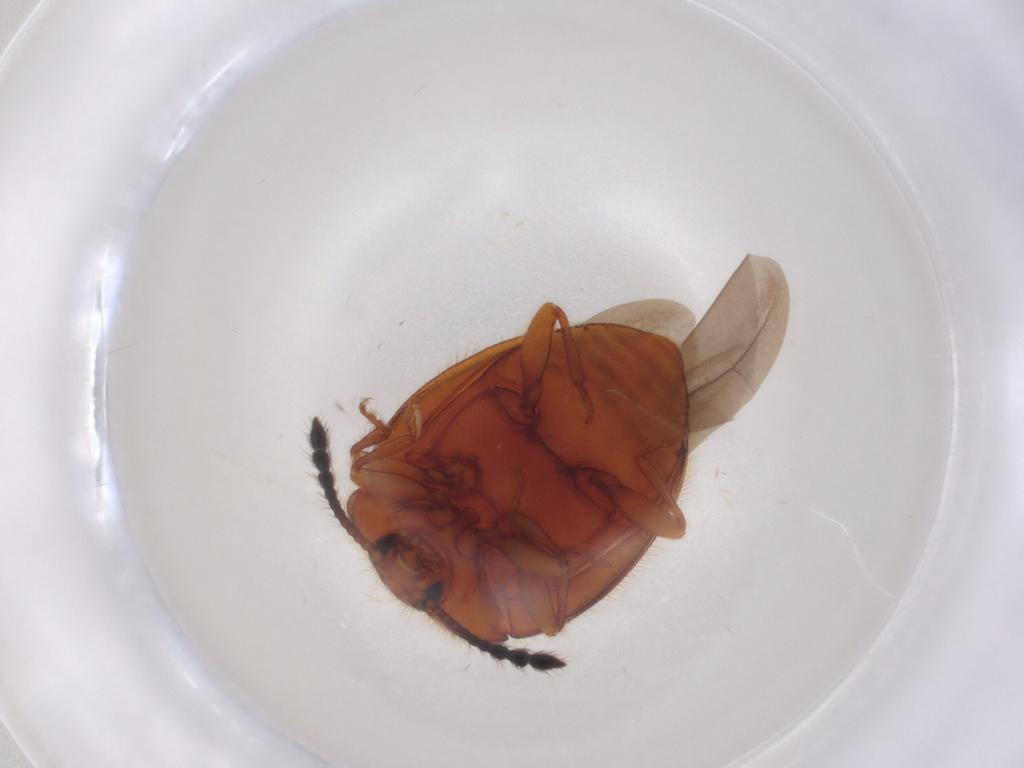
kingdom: Animalia
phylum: Arthropoda
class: Insecta
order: Coleoptera
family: Endomychidae
